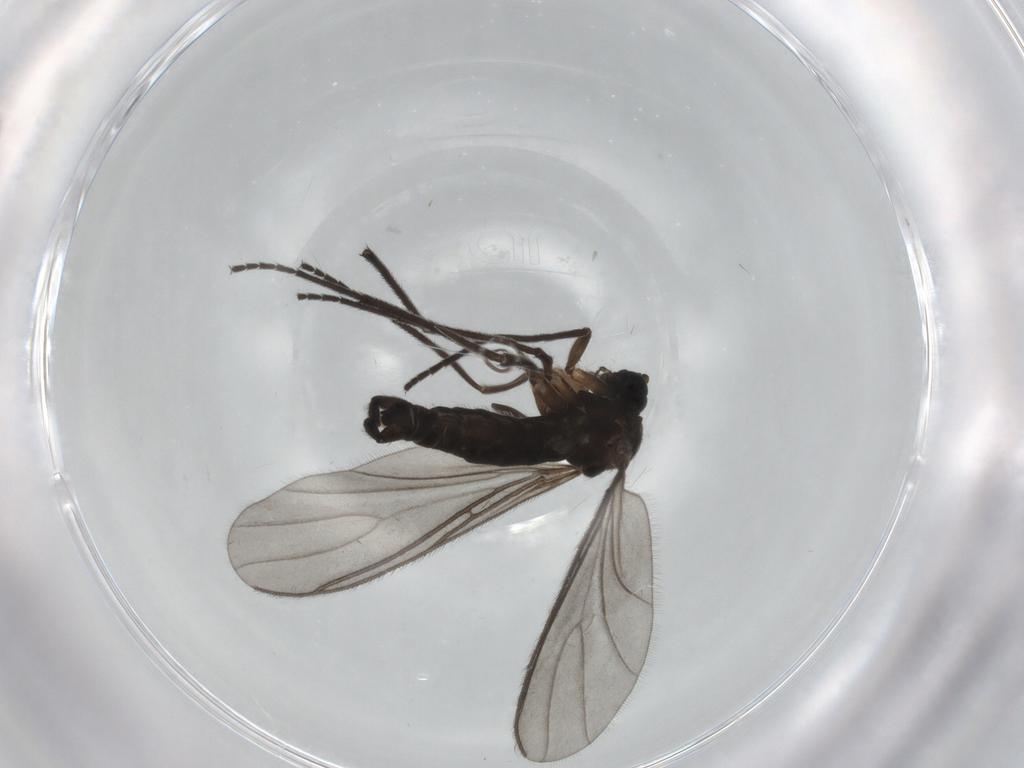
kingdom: Animalia
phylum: Arthropoda
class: Insecta
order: Diptera
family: Sciaridae
